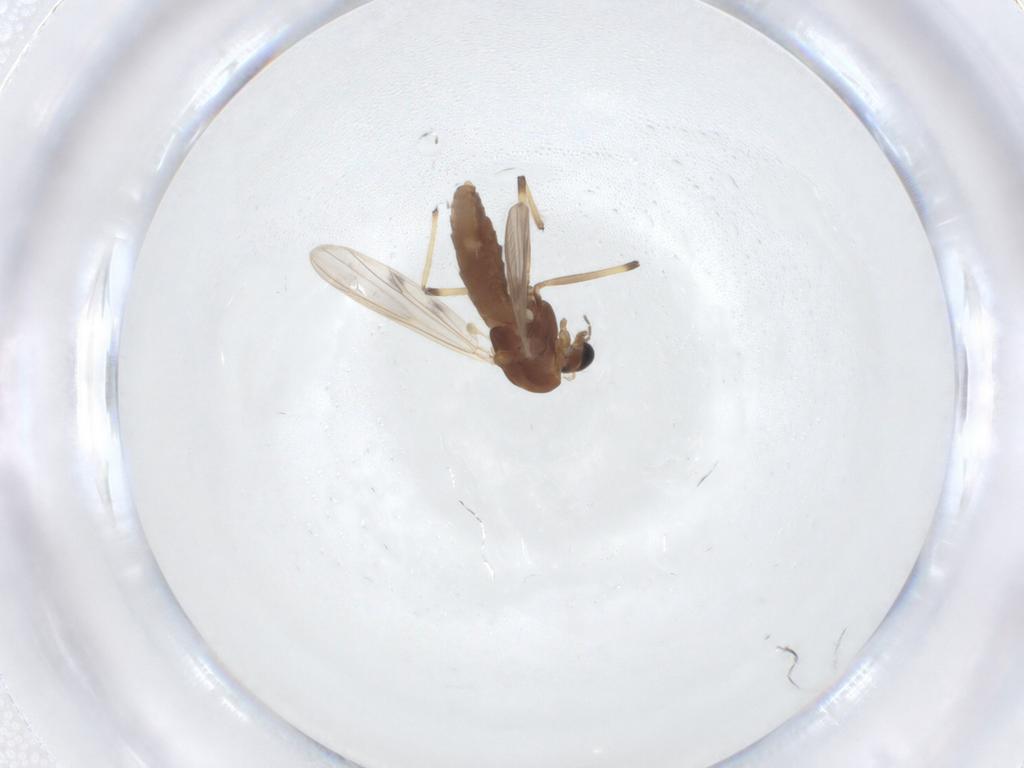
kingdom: Animalia
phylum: Arthropoda
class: Insecta
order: Diptera
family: Chironomidae
